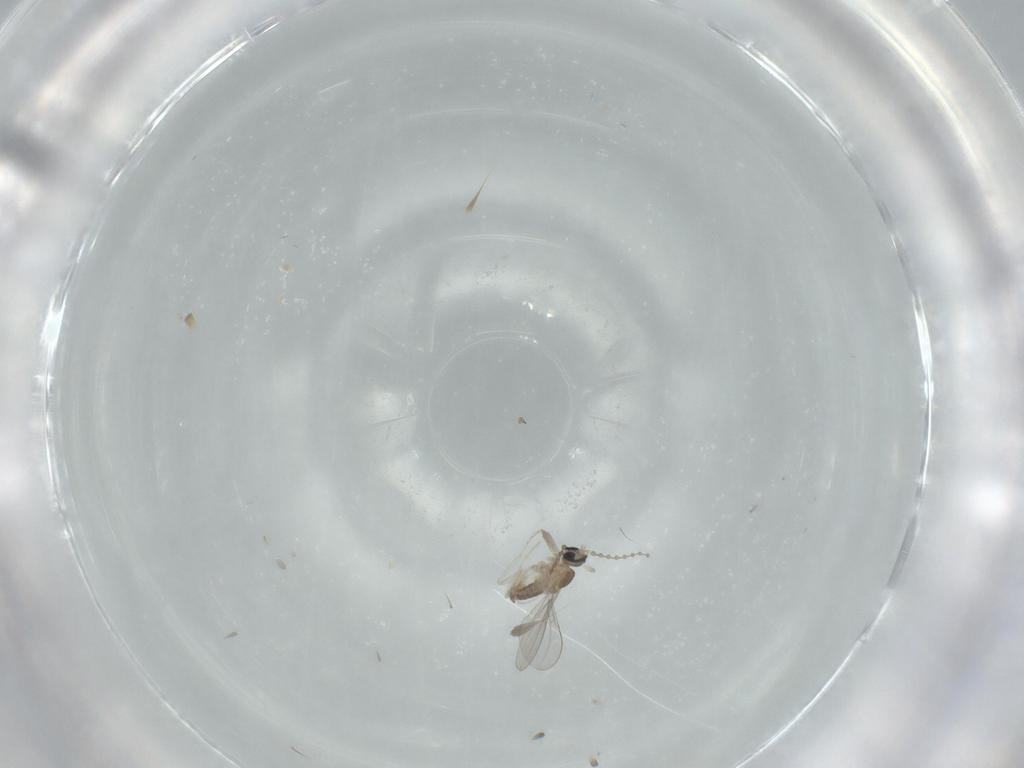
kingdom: Animalia
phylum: Arthropoda
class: Insecta
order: Diptera
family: Cecidomyiidae
